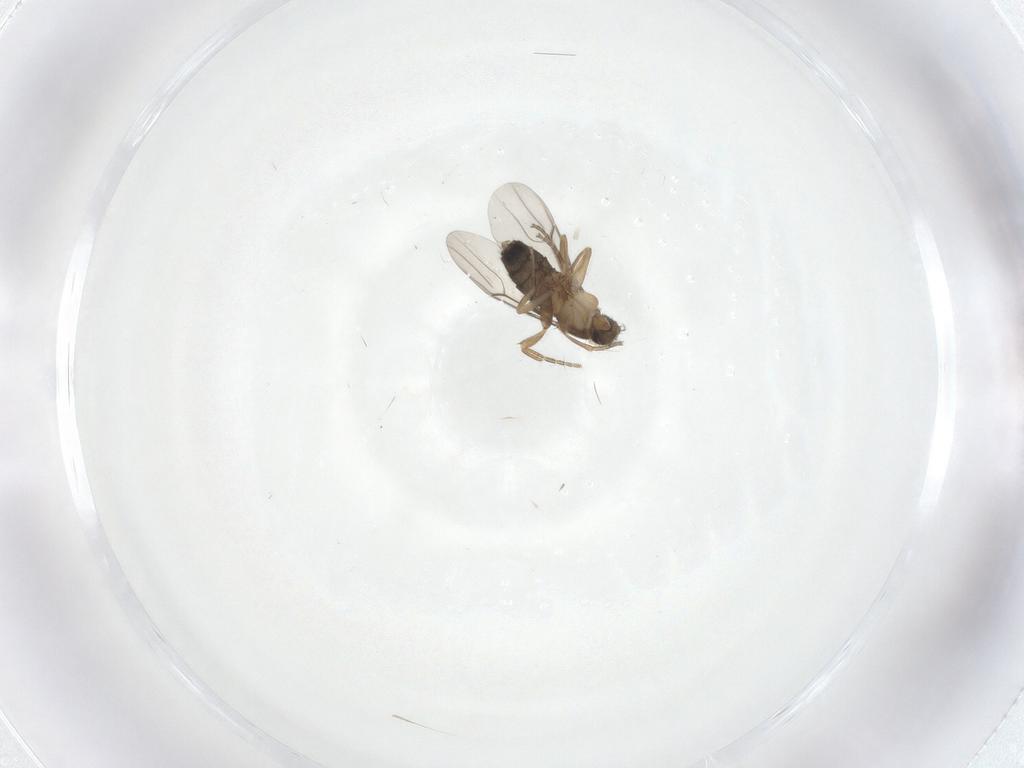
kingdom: Animalia
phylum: Arthropoda
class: Insecta
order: Diptera
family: Phoridae
